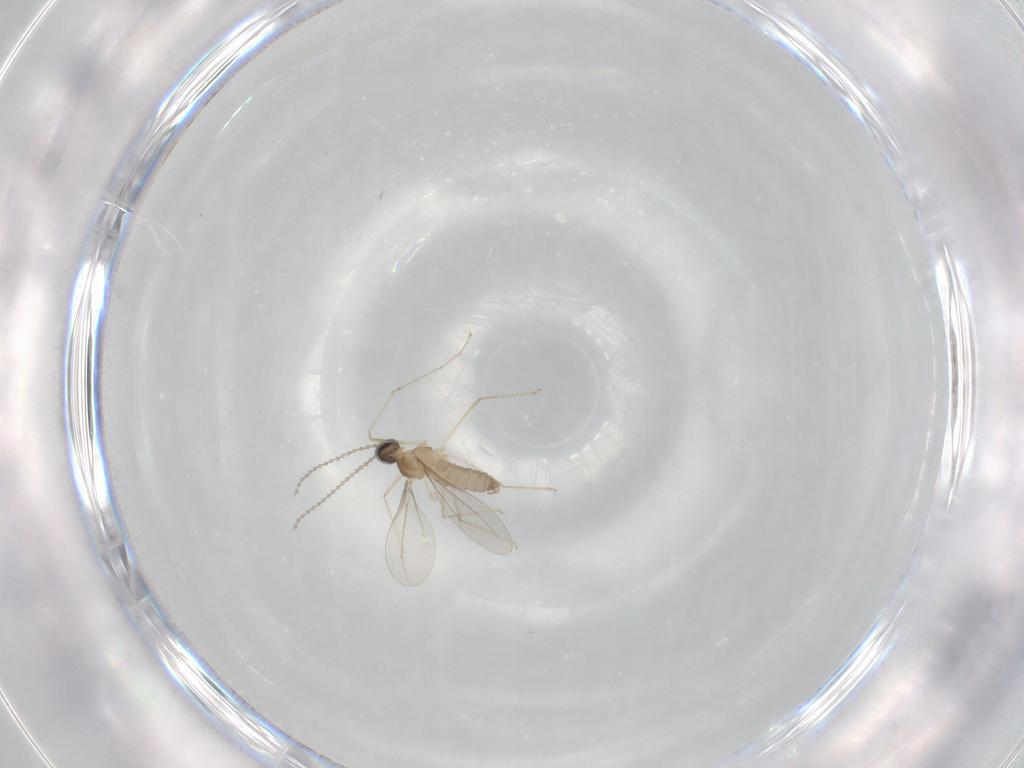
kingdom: Animalia
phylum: Arthropoda
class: Insecta
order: Diptera
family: Cecidomyiidae
